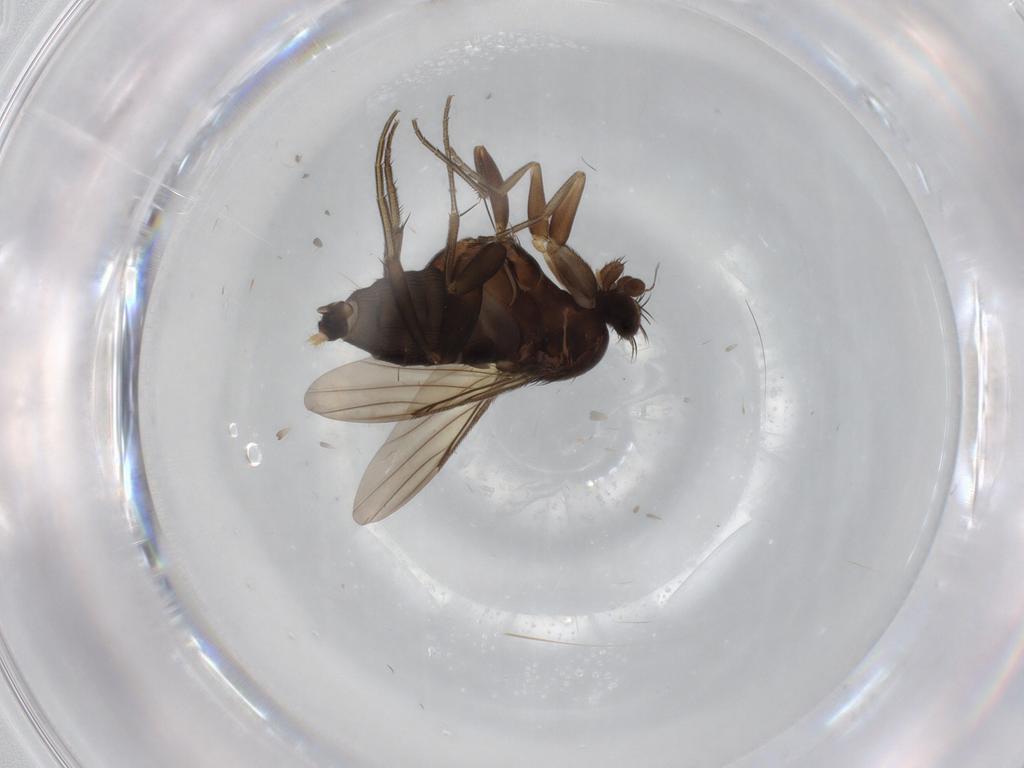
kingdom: Animalia
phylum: Arthropoda
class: Insecta
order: Diptera
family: Phoridae
